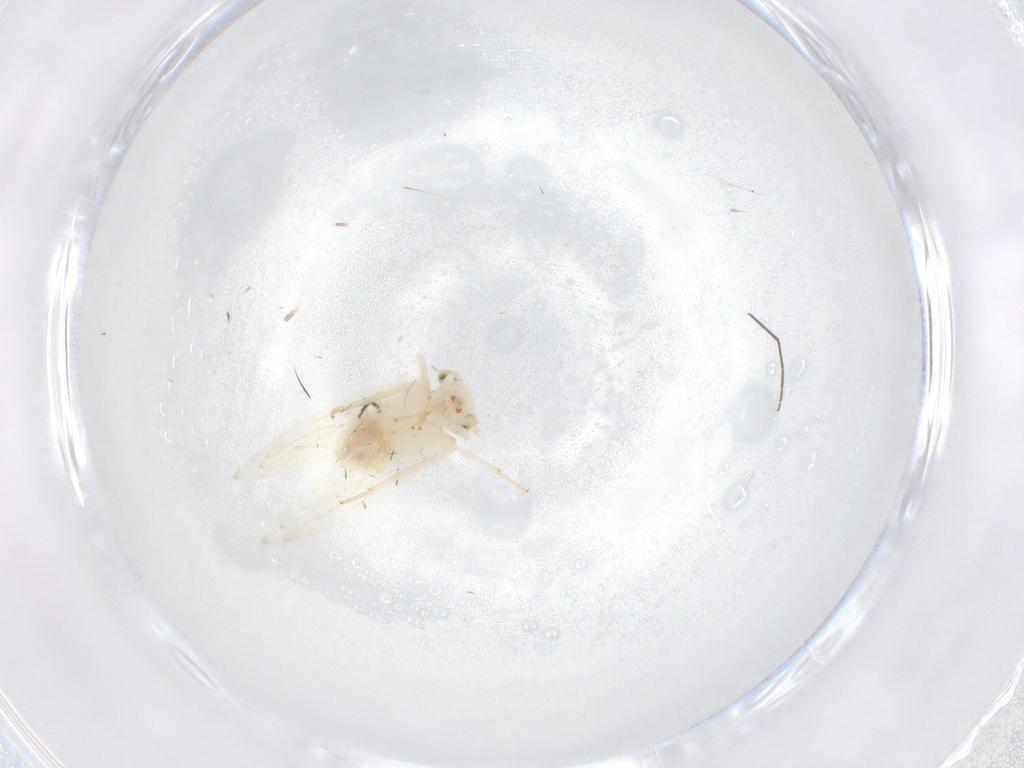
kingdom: Animalia
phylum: Arthropoda
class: Insecta
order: Psocodea
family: Lepidopsocidae
